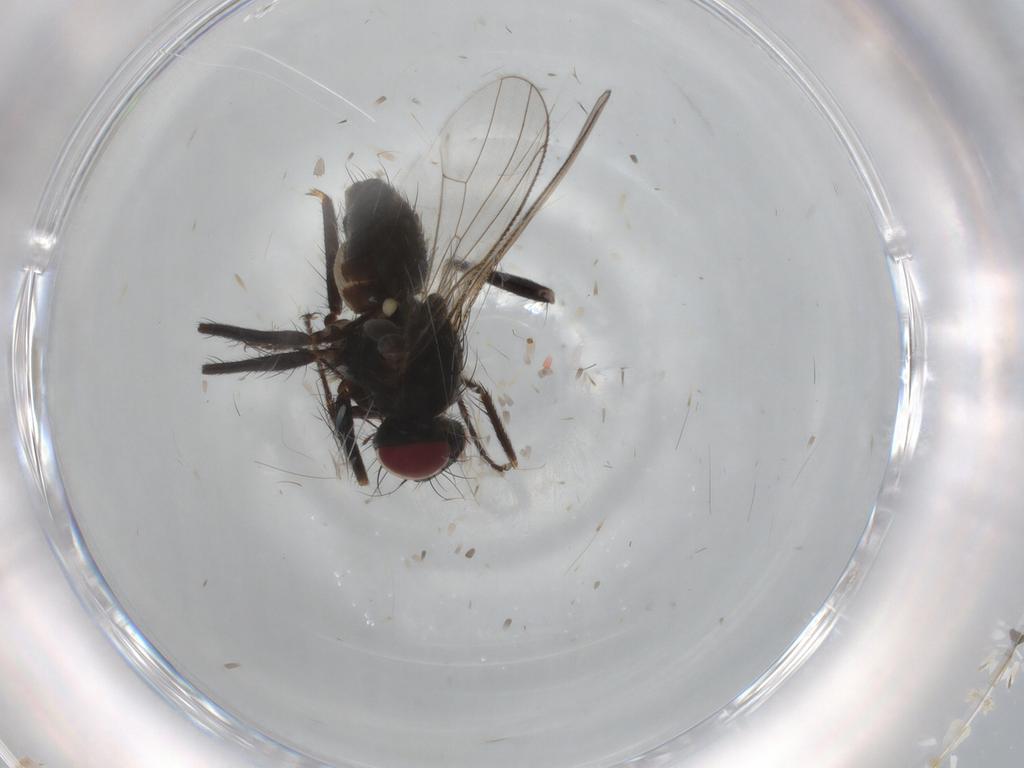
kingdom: Animalia
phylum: Arthropoda
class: Insecta
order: Diptera
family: Muscidae
